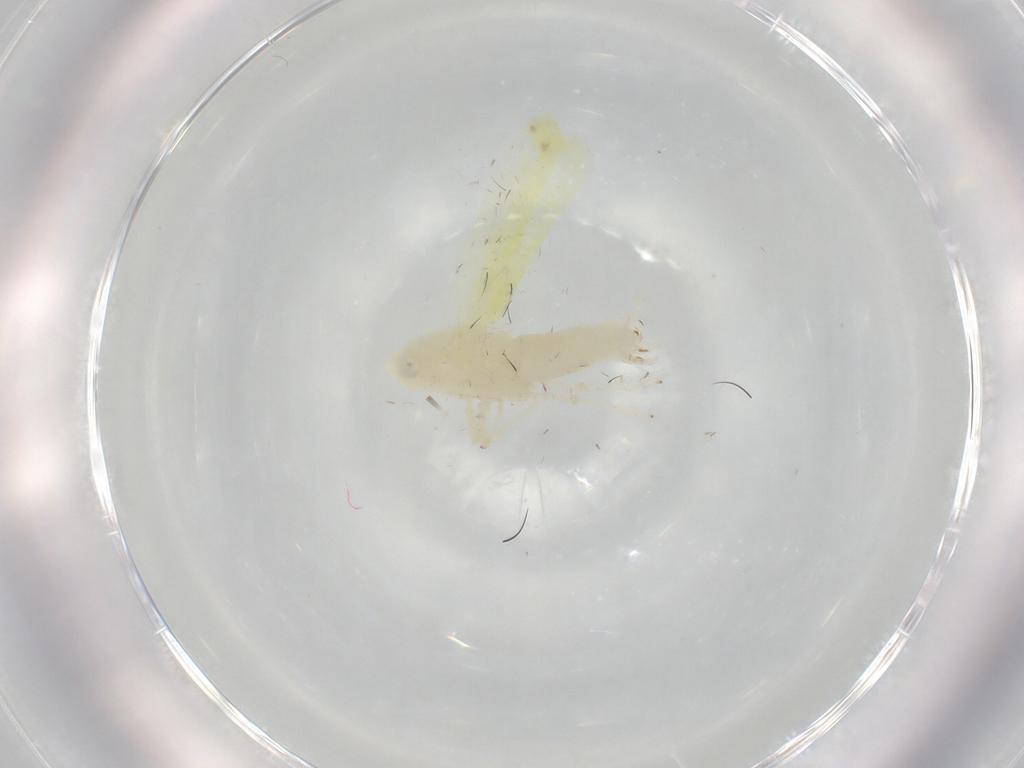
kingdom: Animalia
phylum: Arthropoda
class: Insecta
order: Hemiptera
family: Cicadellidae
